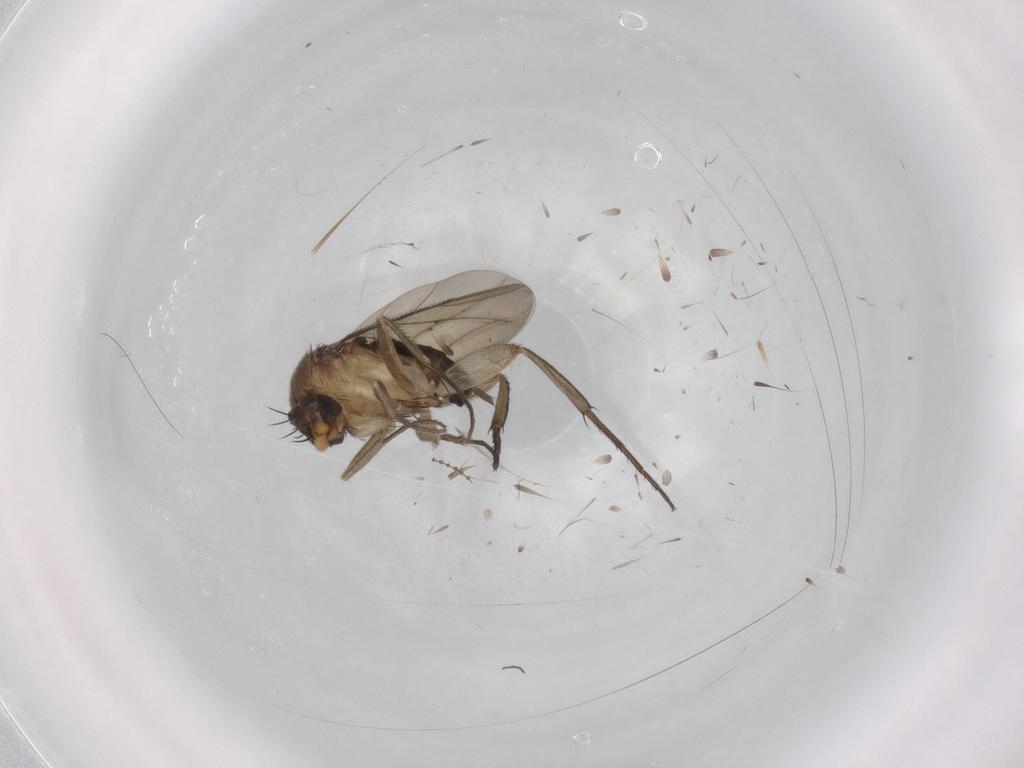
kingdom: Animalia
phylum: Arthropoda
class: Insecta
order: Diptera
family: Phoridae
